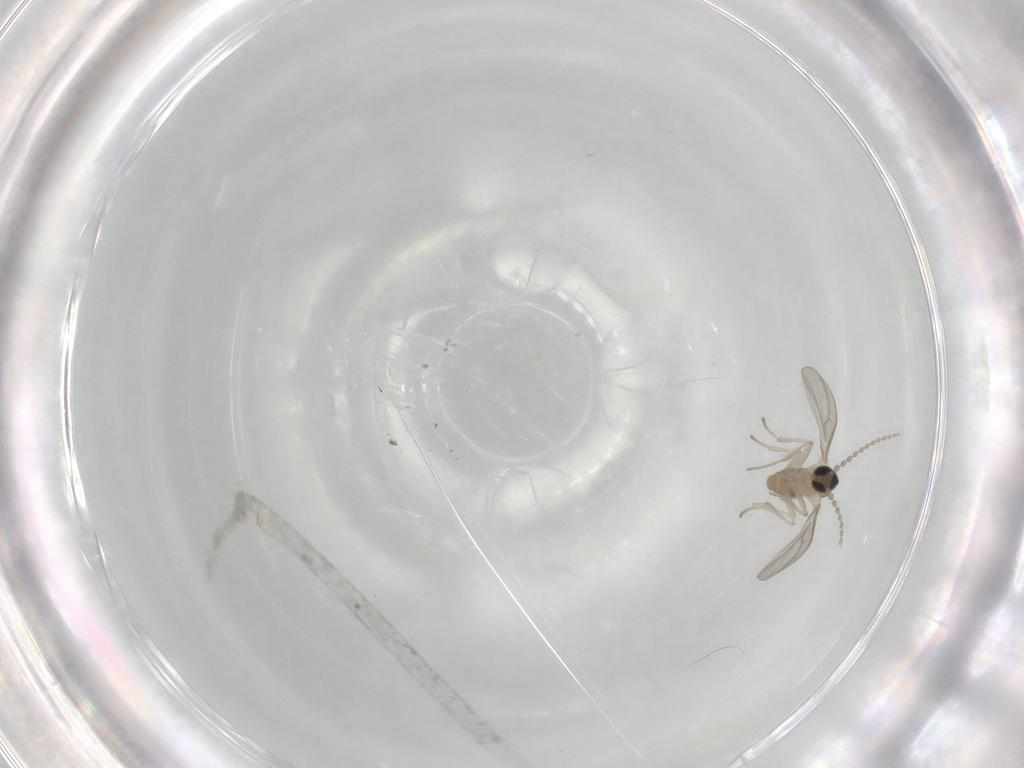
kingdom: Animalia
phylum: Arthropoda
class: Insecta
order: Diptera
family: Cecidomyiidae
